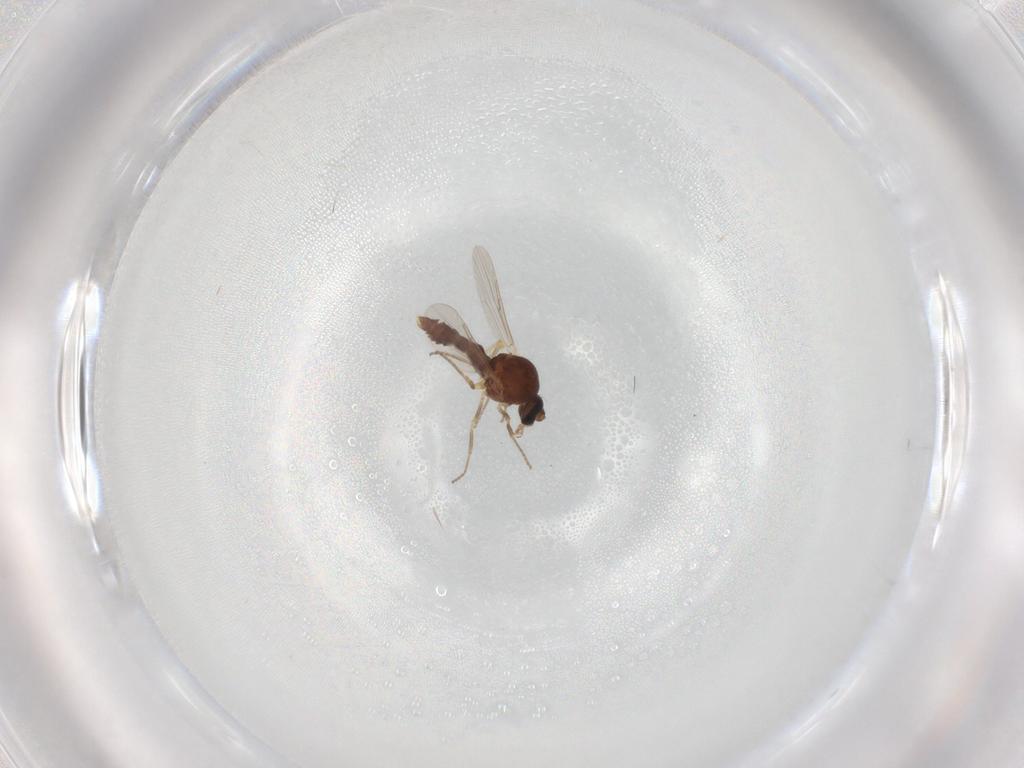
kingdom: Animalia
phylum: Arthropoda
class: Insecta
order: Diptera
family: Ceratopogonidae
